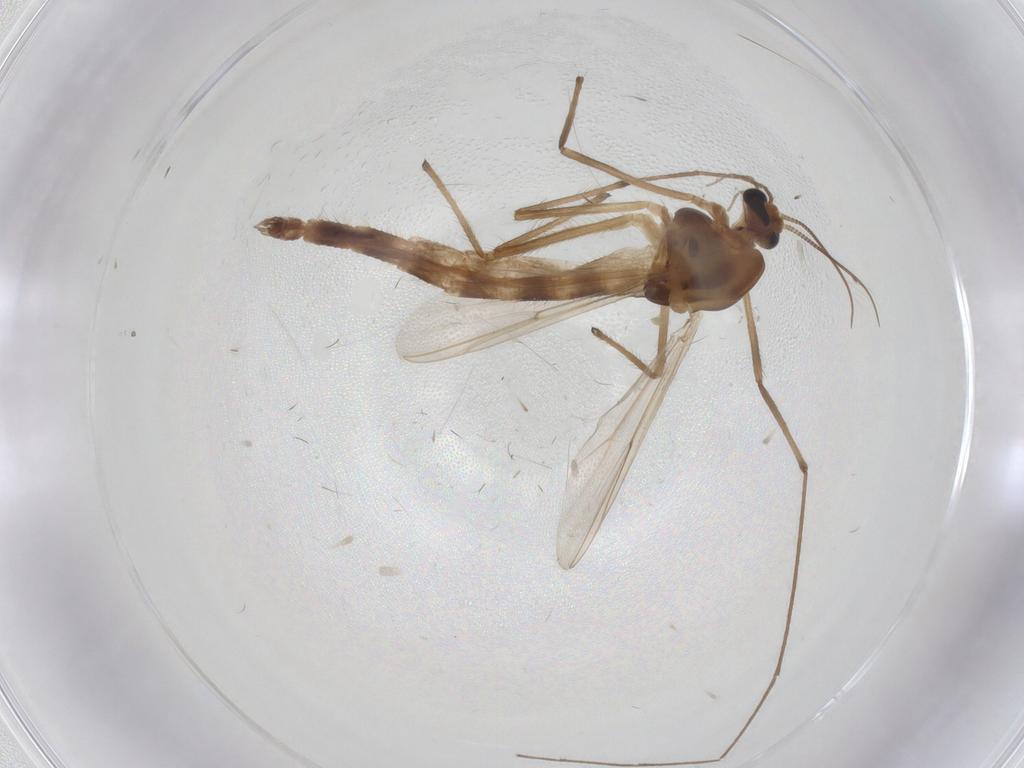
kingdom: Animalia
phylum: Arthropoda
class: Insecta
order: Diptera
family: Chironomidae
